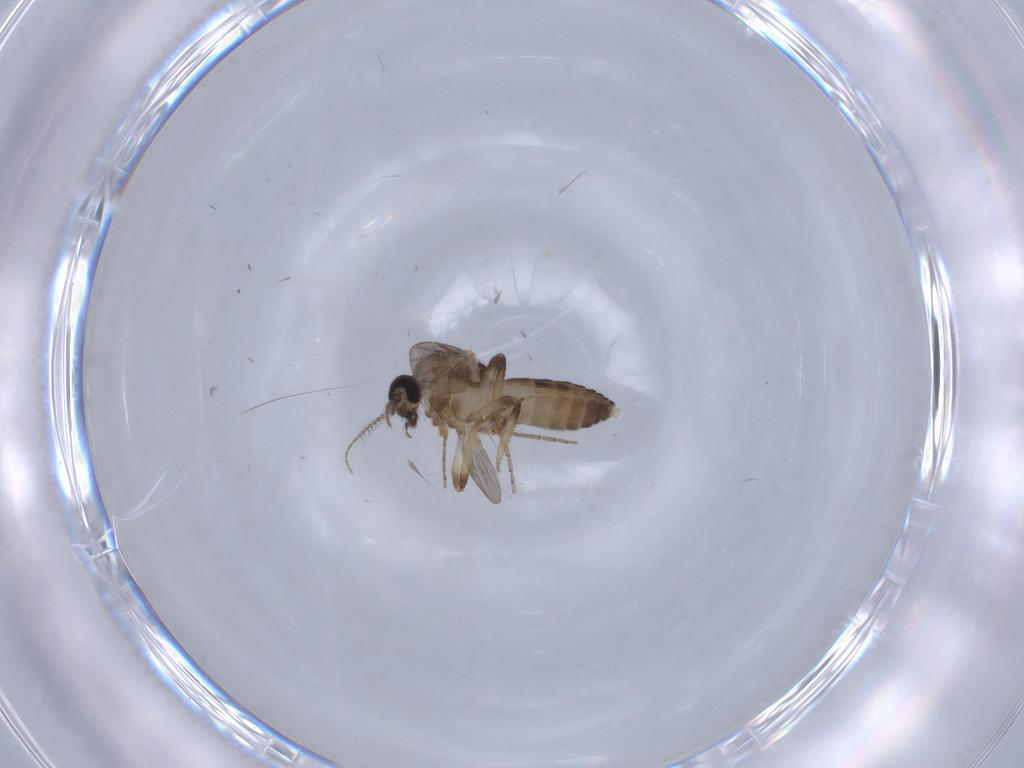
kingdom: Animalia
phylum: Arthropoda
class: Insecta
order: Diptera
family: Ceratopogonidae
